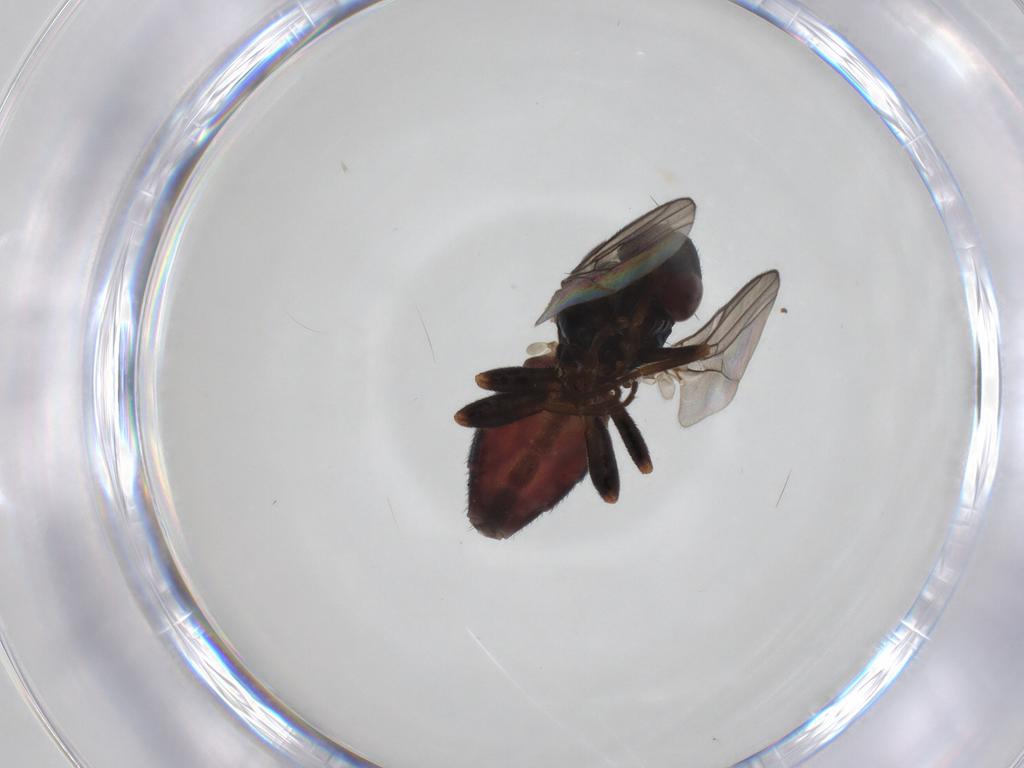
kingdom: Animalia
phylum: Arthropoda
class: Insecta
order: Diptera
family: Chloropidae
